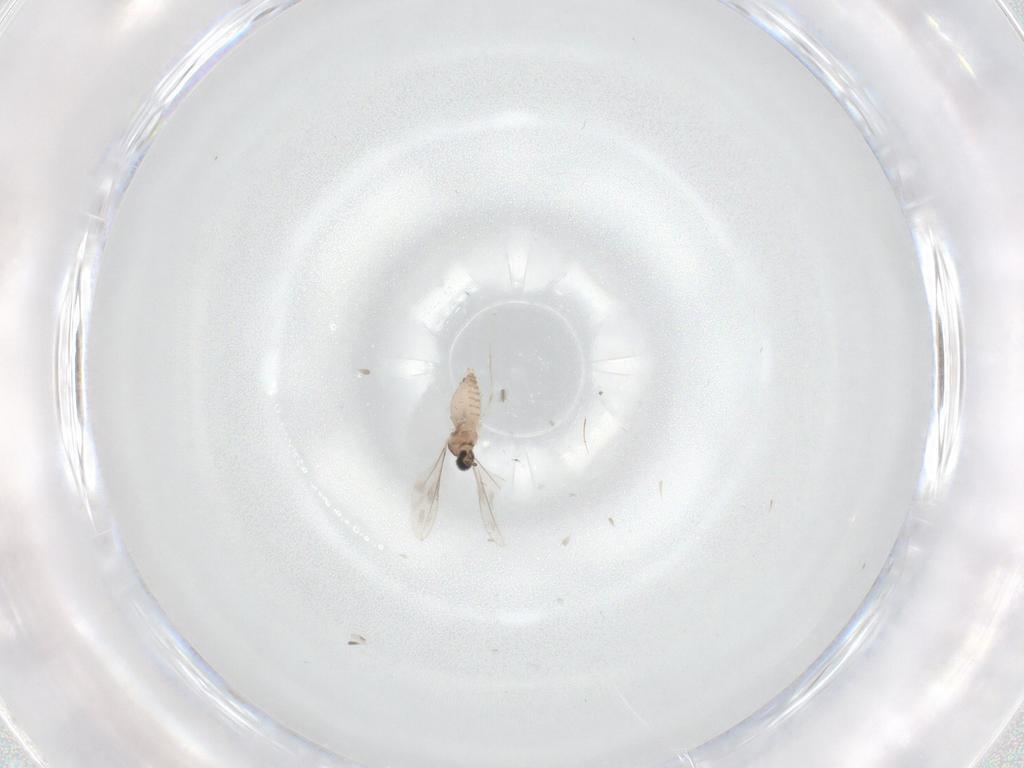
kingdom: Animalia
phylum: Arthropoda
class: Insecta
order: Diptera
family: Cecidomyiidae
